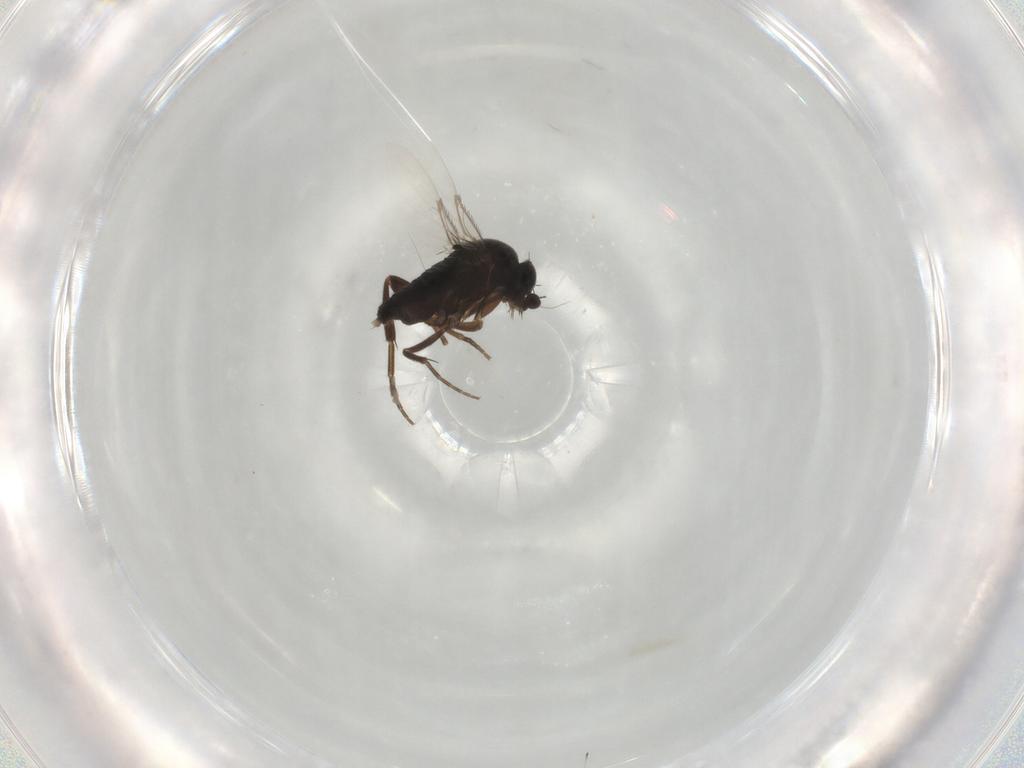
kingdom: Animalia
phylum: Arthropoda
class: Insecta
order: Diptera
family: Phoridae
